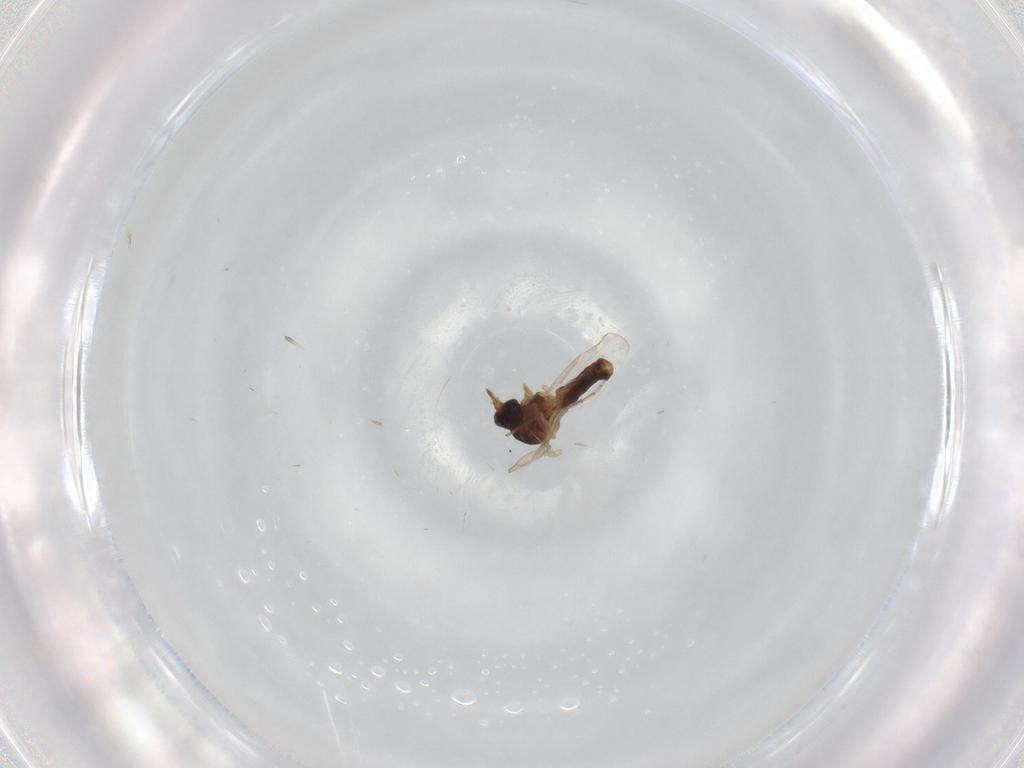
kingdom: Animalia
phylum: Arthropoda
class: Insecta
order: Diptera
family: Ceratopogonidae
